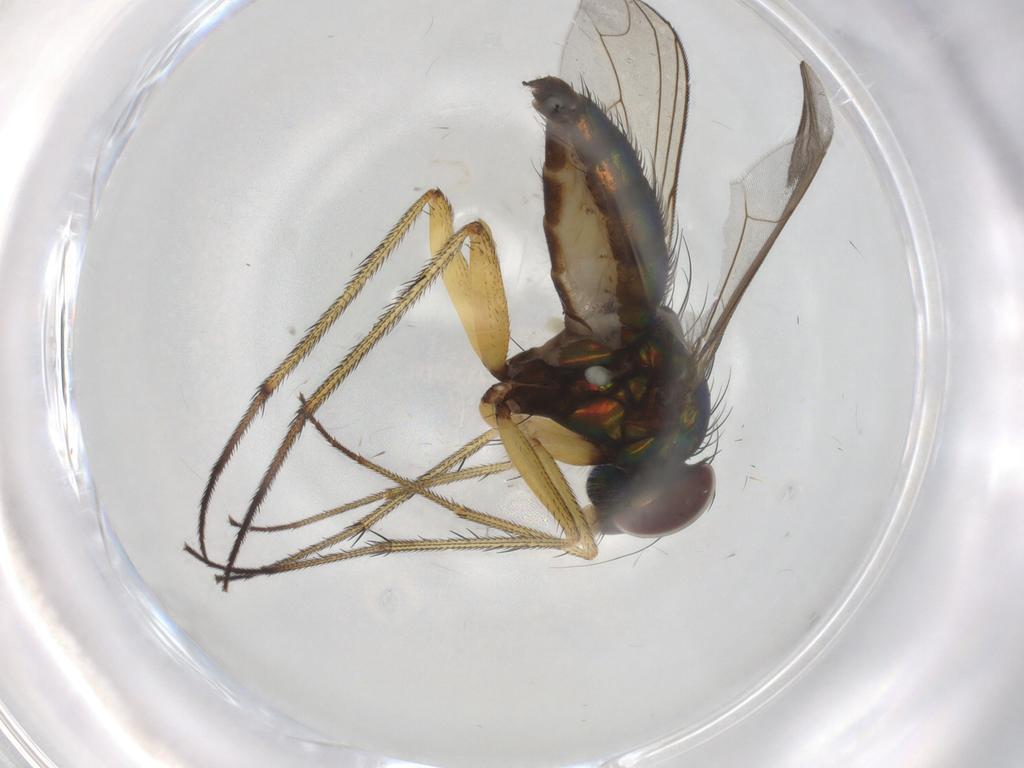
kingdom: Animalia
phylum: Arthropoda
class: Insecta
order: Diptera
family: Dolichopodidae
